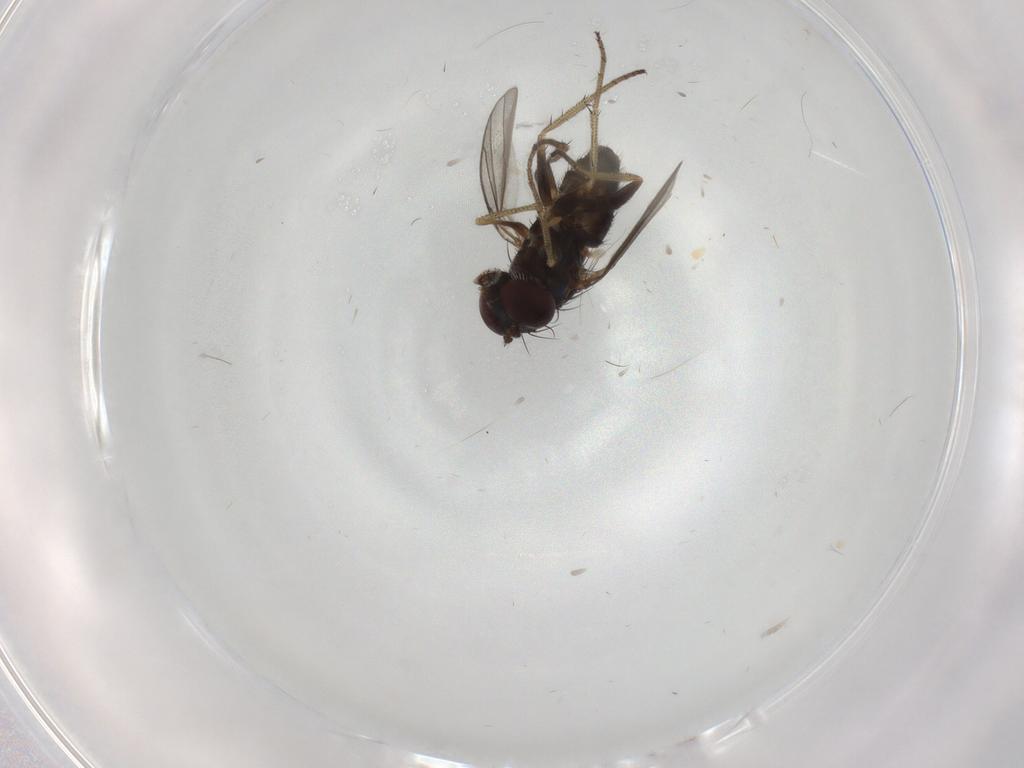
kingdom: Animalia
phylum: Arthropoda
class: Insecta
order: Diptera
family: Ceratopogonidae
